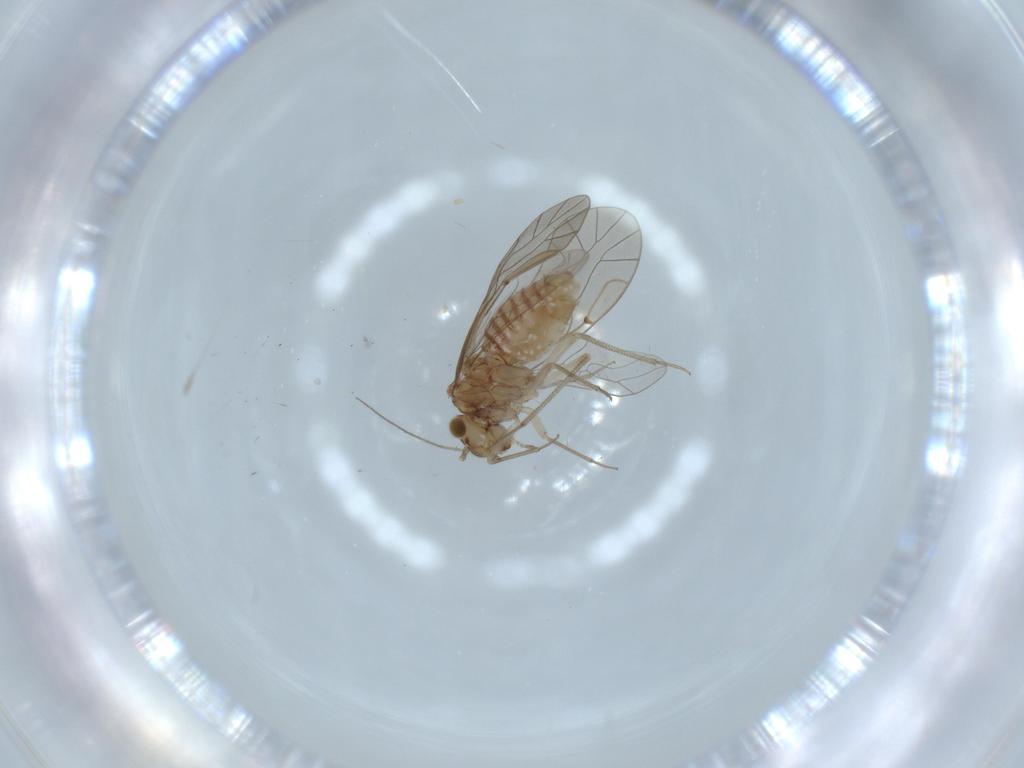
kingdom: Animalia
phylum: Arthropoda
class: Insecta
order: Psocodea
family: Lachesillidae
